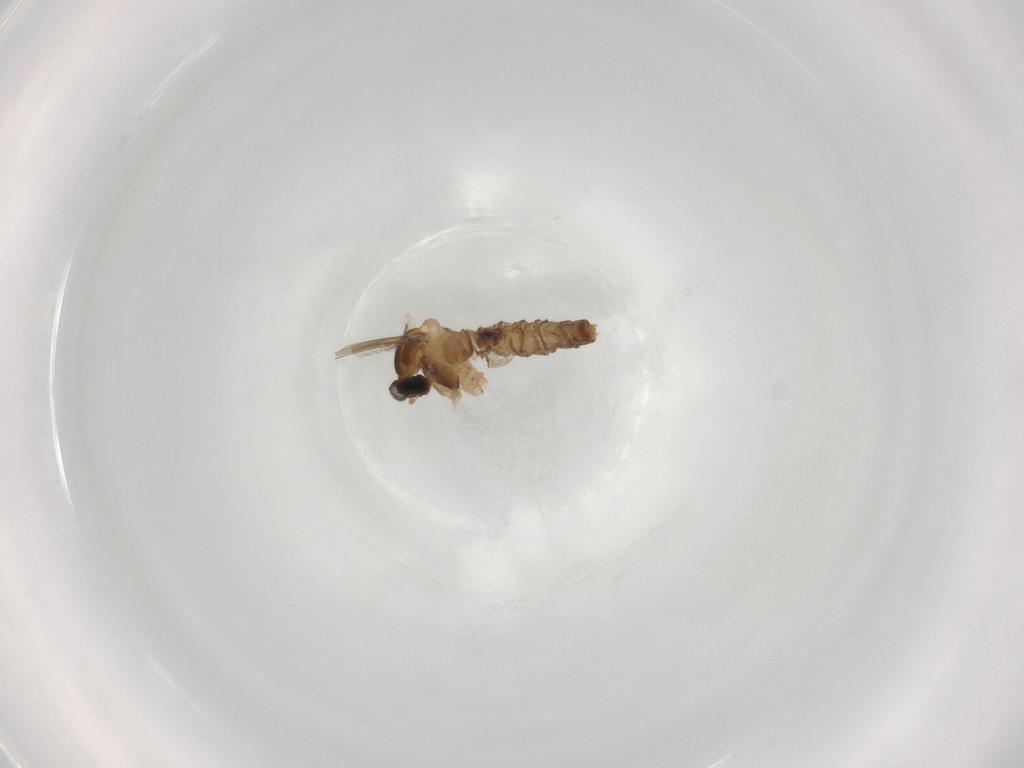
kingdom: Animalia
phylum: Arthropoda
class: Insecta
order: Diptera
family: Cecidomyiidae
